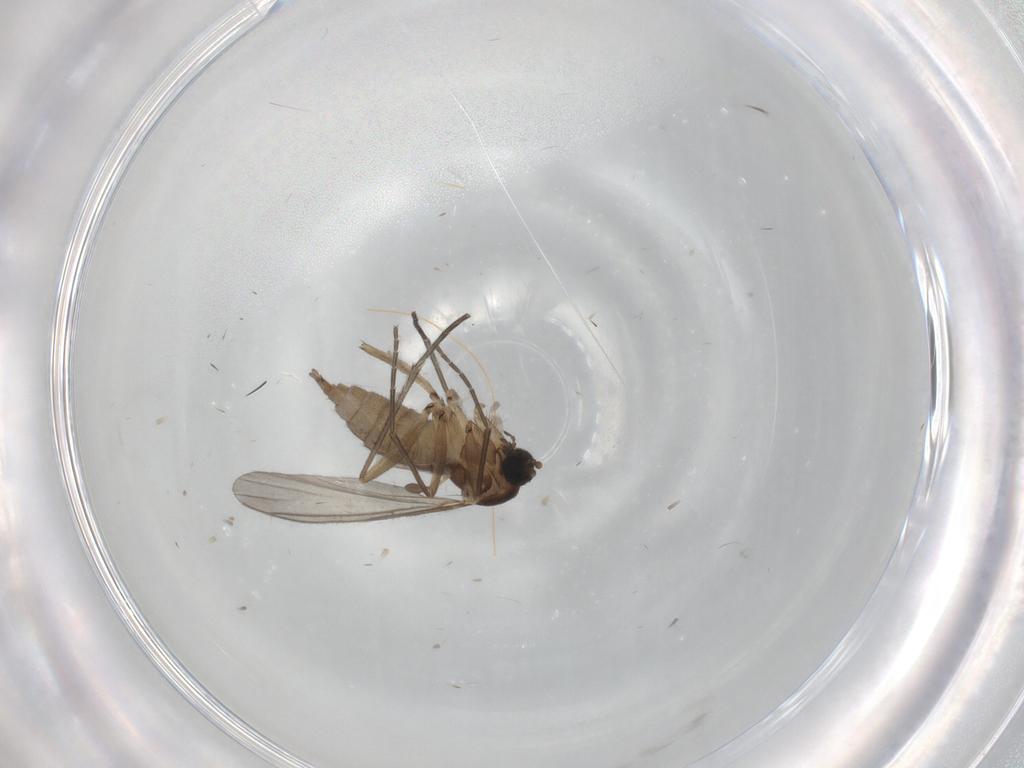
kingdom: Animalia
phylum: Arthropoda
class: Insecta
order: Diptera
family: Sciaridae
